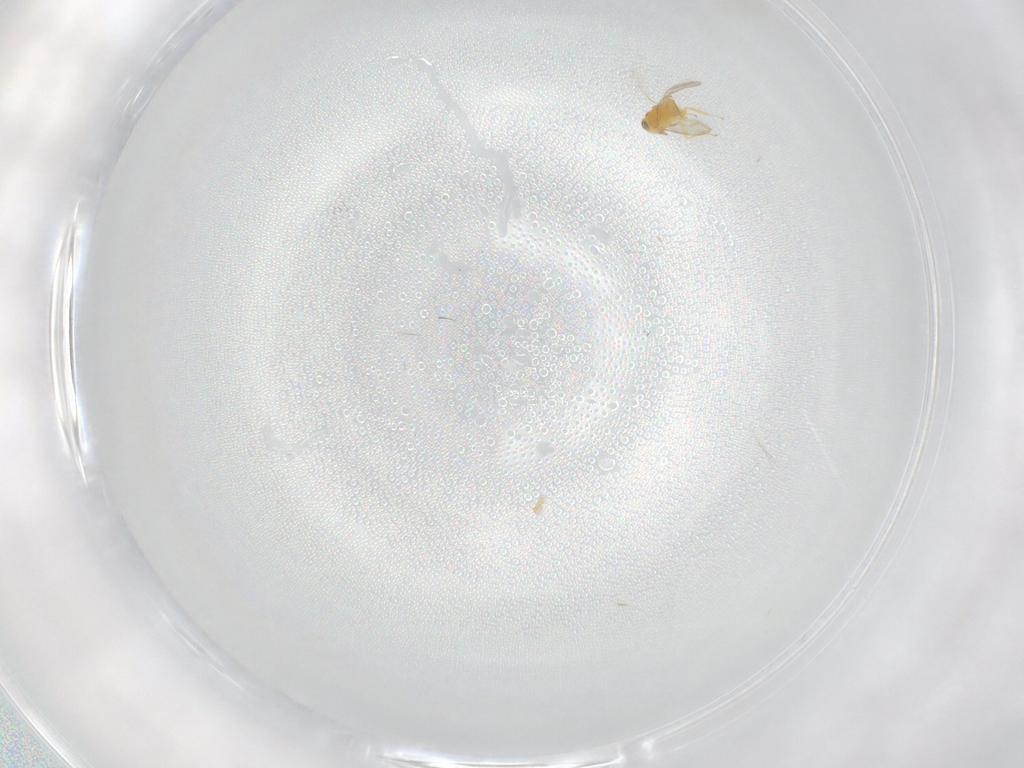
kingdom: Animalia
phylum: Arthropoda
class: Insecta
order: Hymenoptera
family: Aphelinidae
